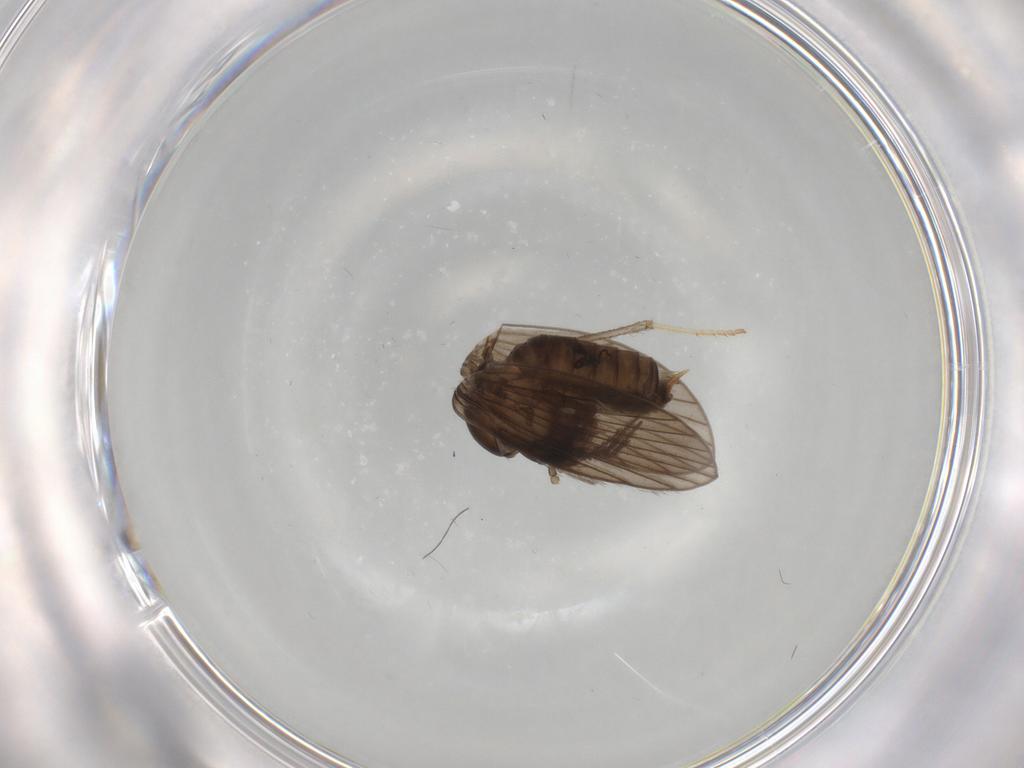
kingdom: Animalia
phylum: Arthropoda
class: Insecta
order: Diptera
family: Psychodidae
